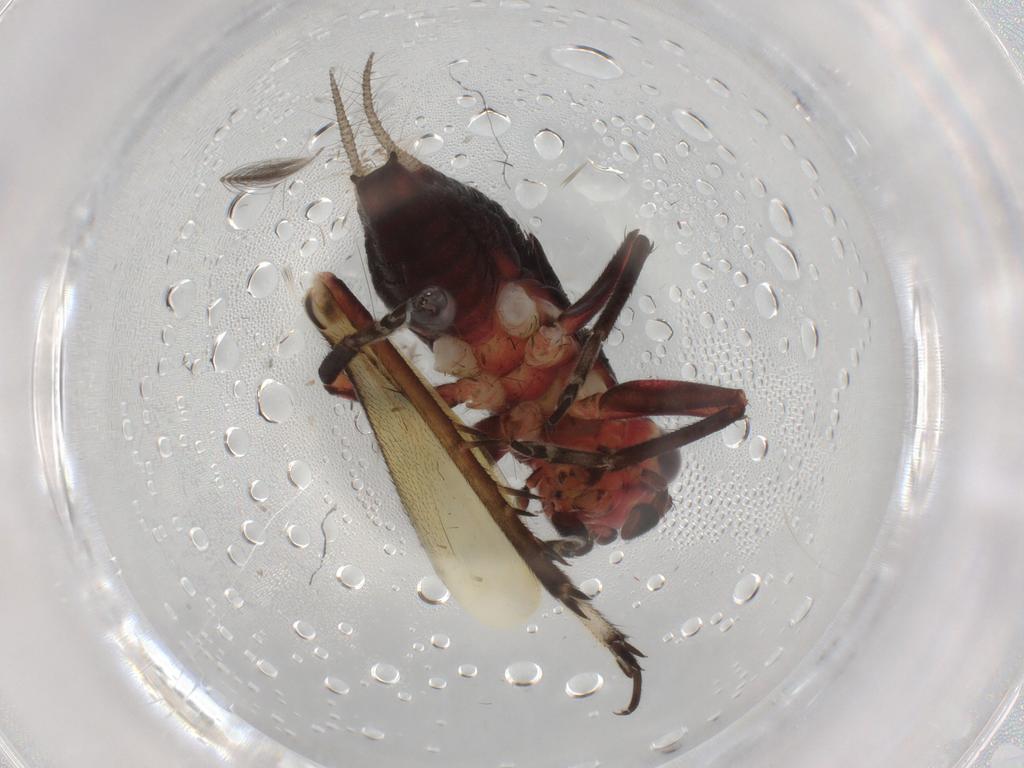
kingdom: Animalia
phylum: Arthropoda
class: Insecta
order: Orthoptera
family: Trigonidiidae
